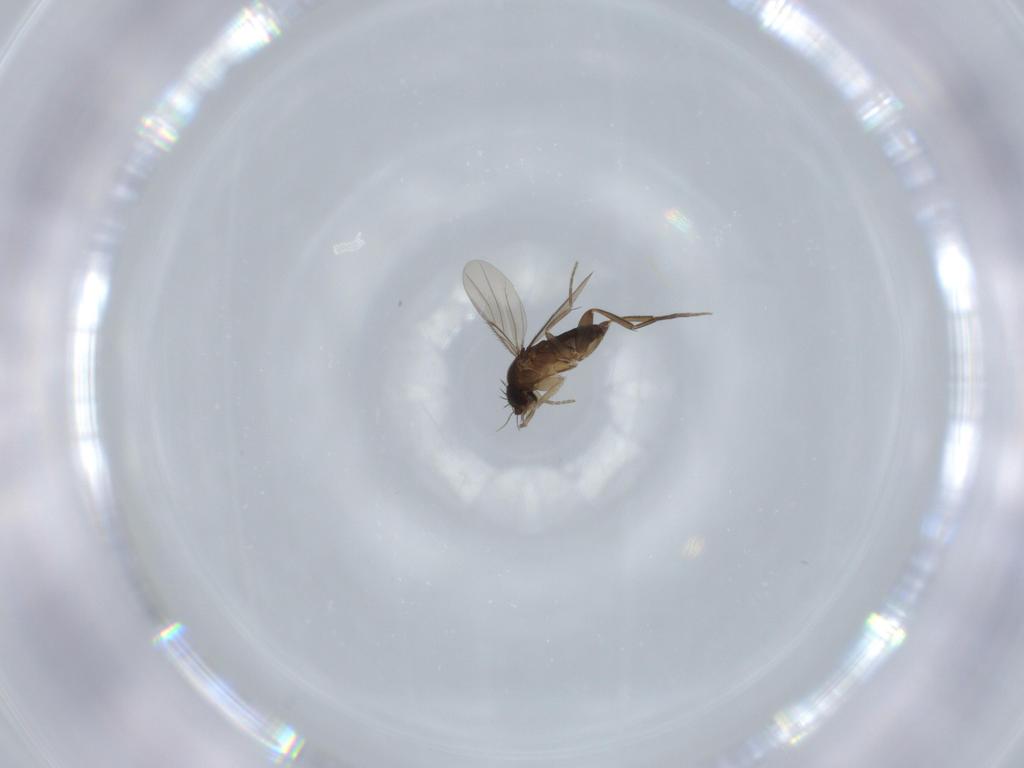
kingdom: Animalia
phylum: Arthropoda
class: Insecta
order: Diptera
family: Phoridae
